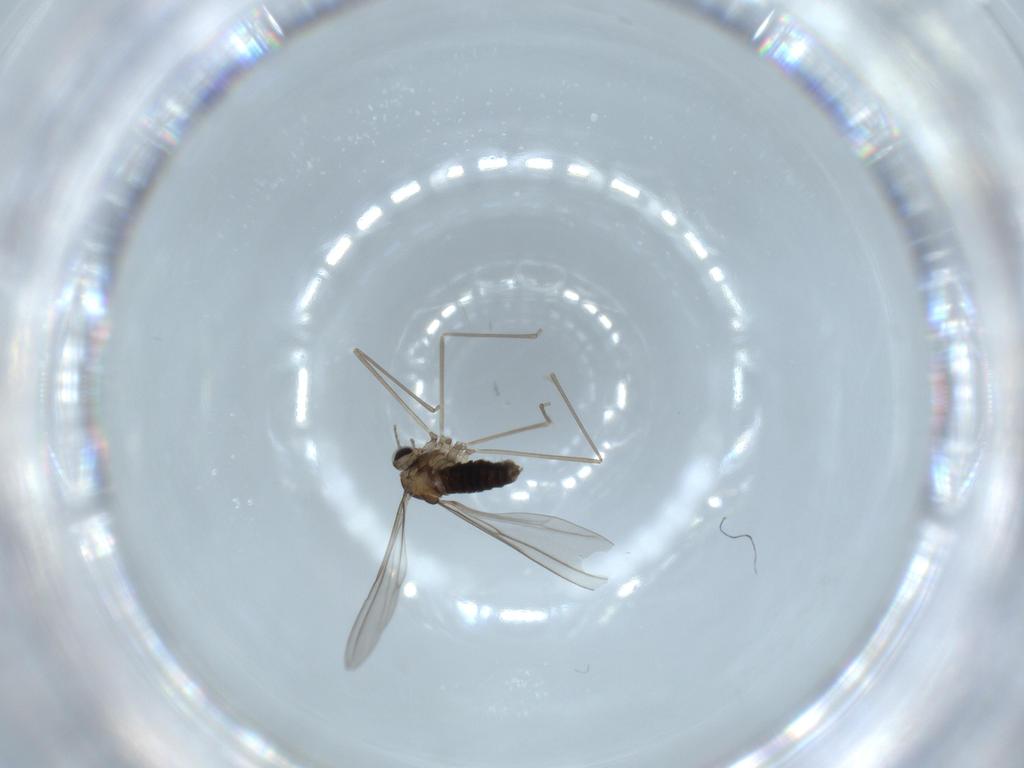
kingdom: Animalia
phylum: Arthropoda
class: Insecta
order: Diptera
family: Cecidomyiidae
